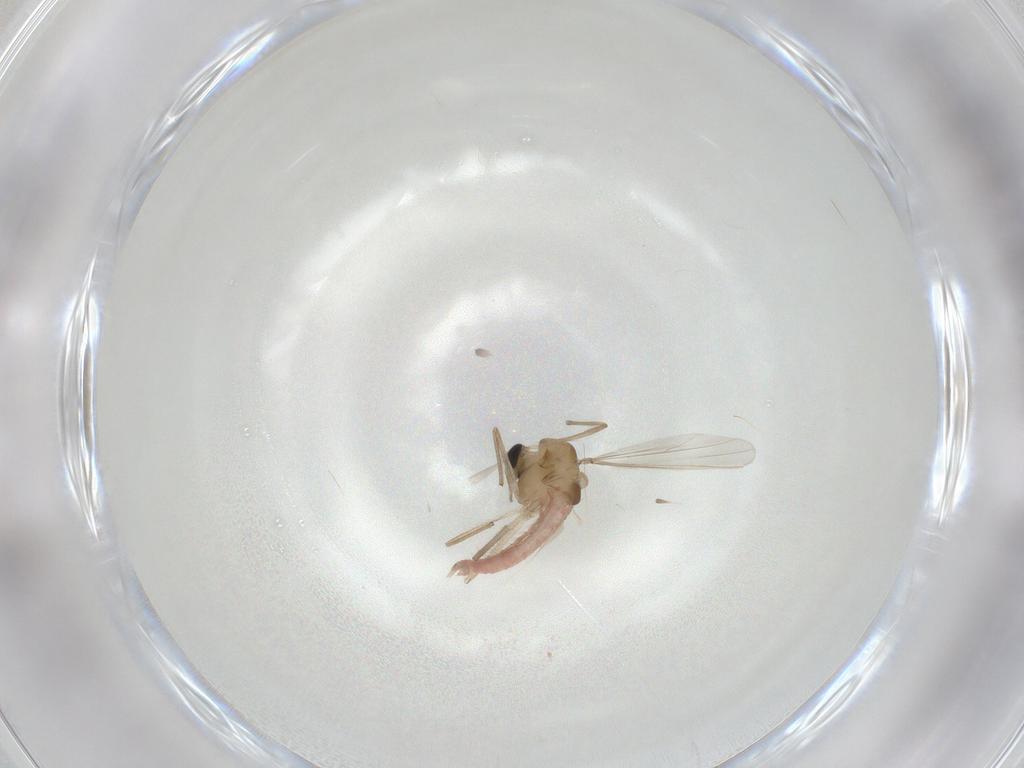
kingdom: Animalia
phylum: Arthropoda
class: Insecta
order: Diptera
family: Chironomidae
